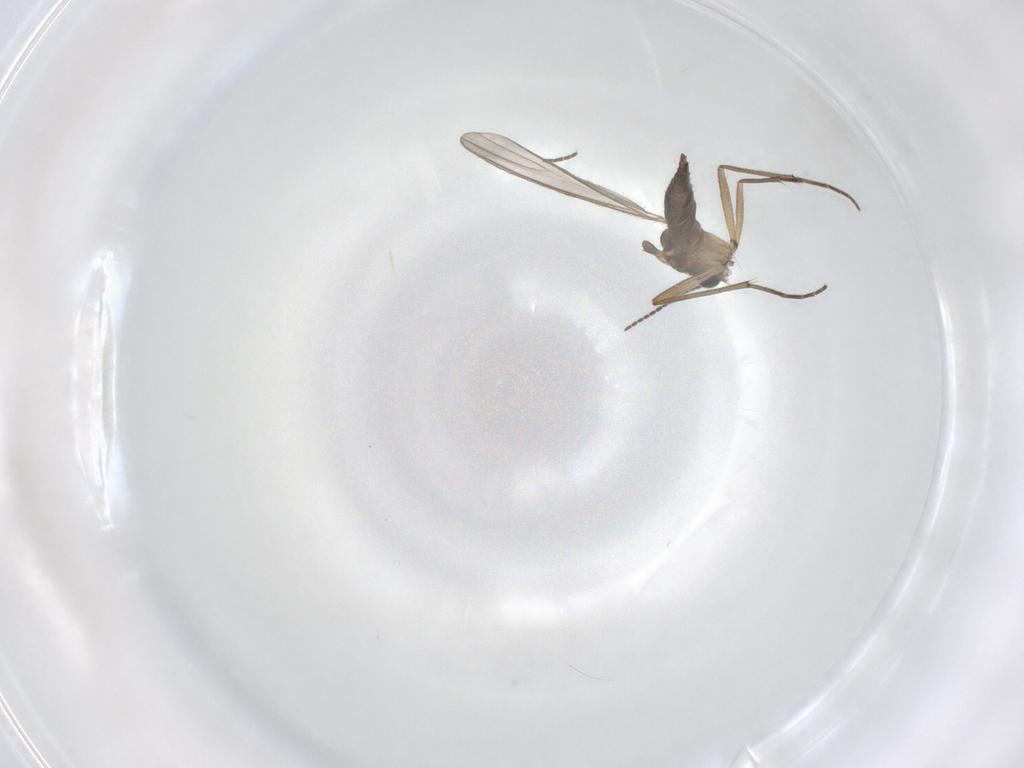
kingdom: Animalia
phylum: Arthropoda
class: Insecta
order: Diptera
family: Sciaridae
